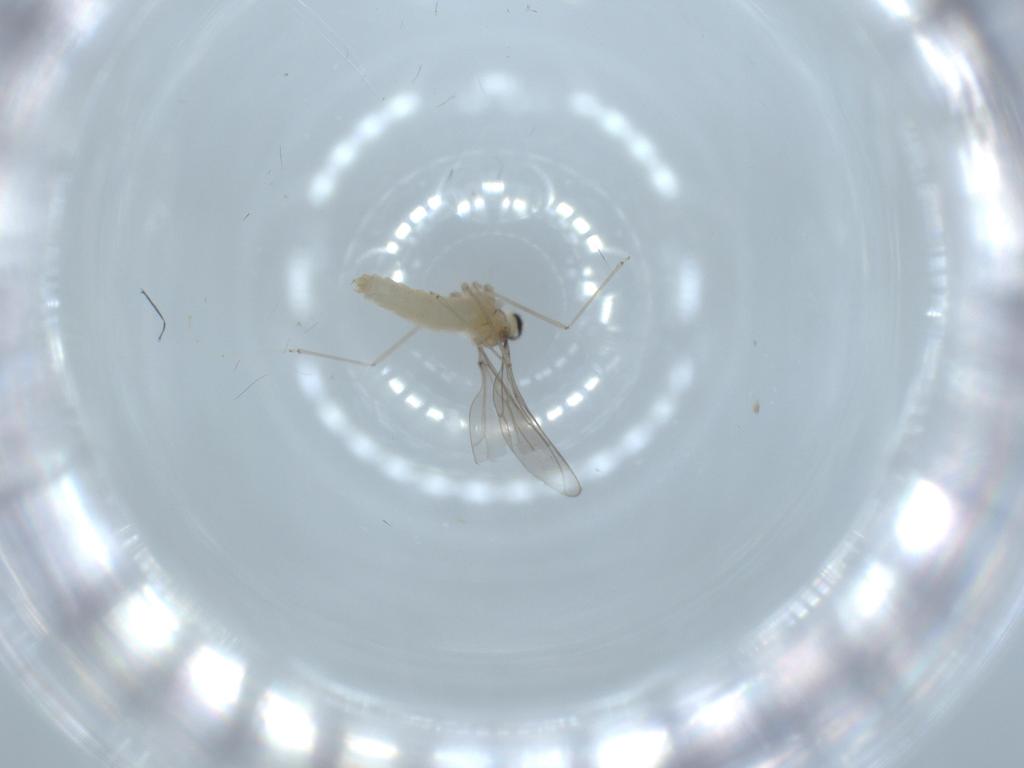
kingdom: Animalia
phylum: Arthropoda
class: Insecta
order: Diptera
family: Cecidomyiidae
